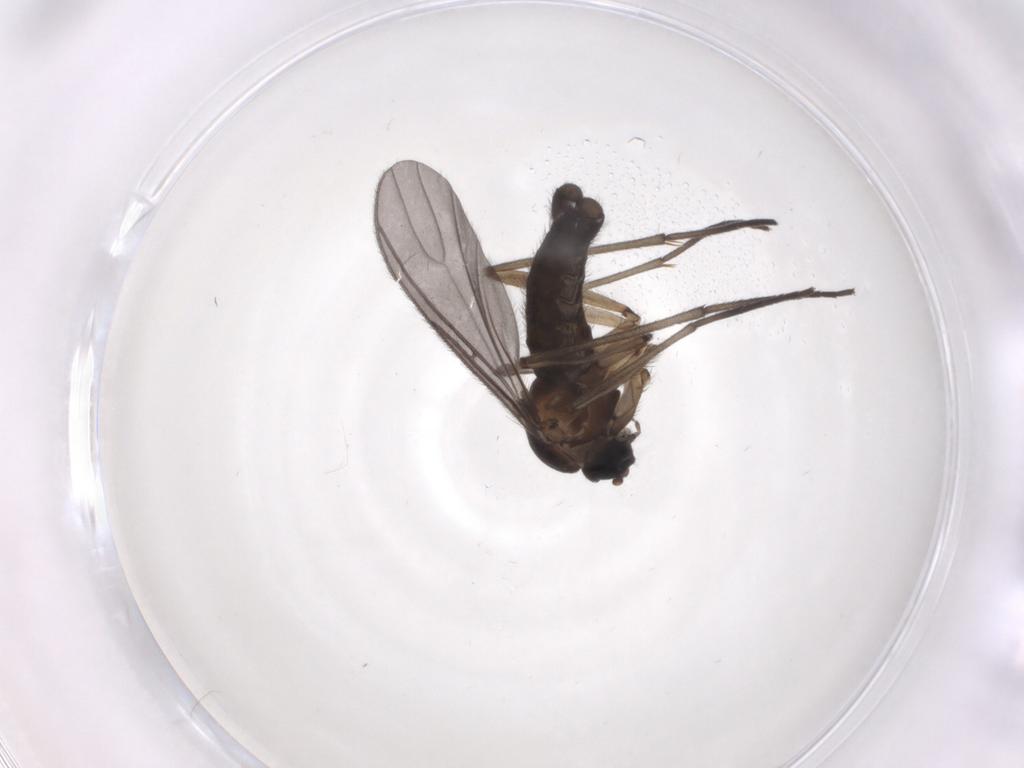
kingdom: Animalia
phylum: Arthropoda
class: Insecta
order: Diptera
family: Sciaridae
